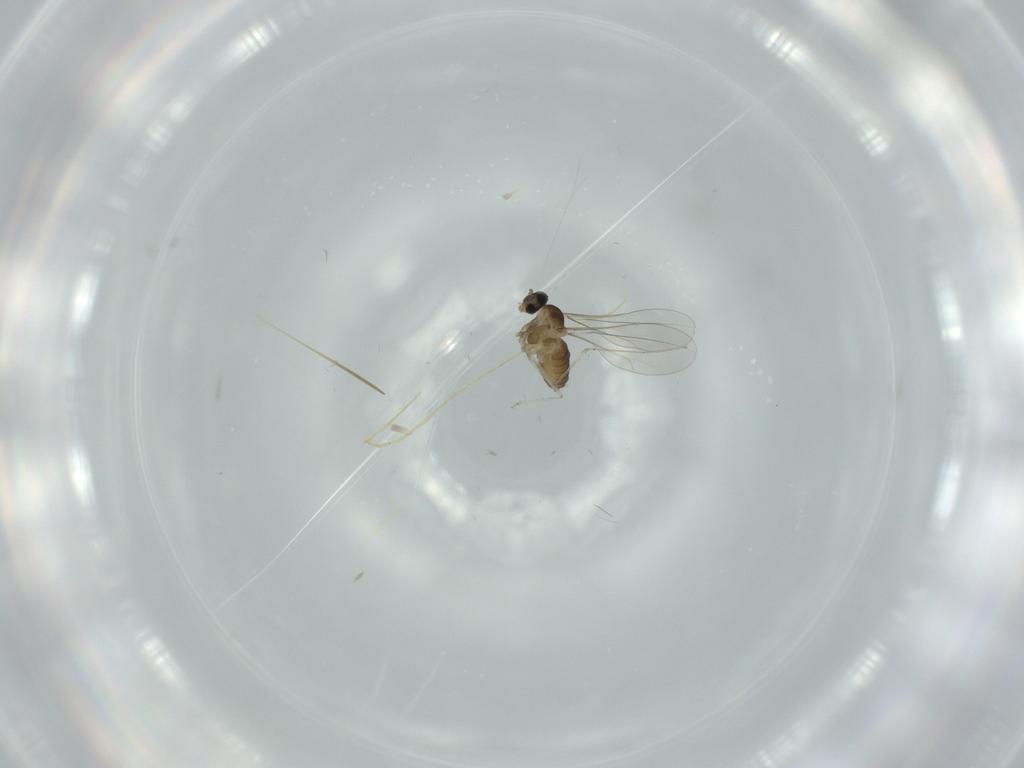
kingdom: Animalia
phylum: Arthropoda
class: Insecta
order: Diptera
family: Cecidomyiidae
